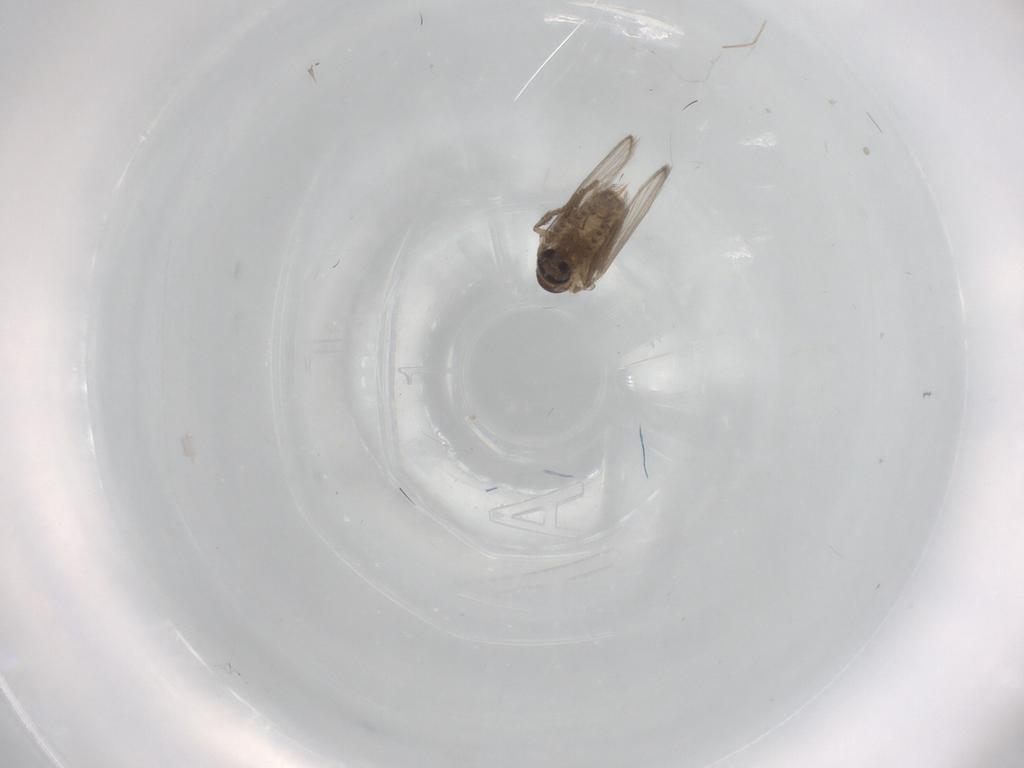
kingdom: Animalia
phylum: Arthropoda
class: Insecta
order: Diptera
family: Psychodidae
